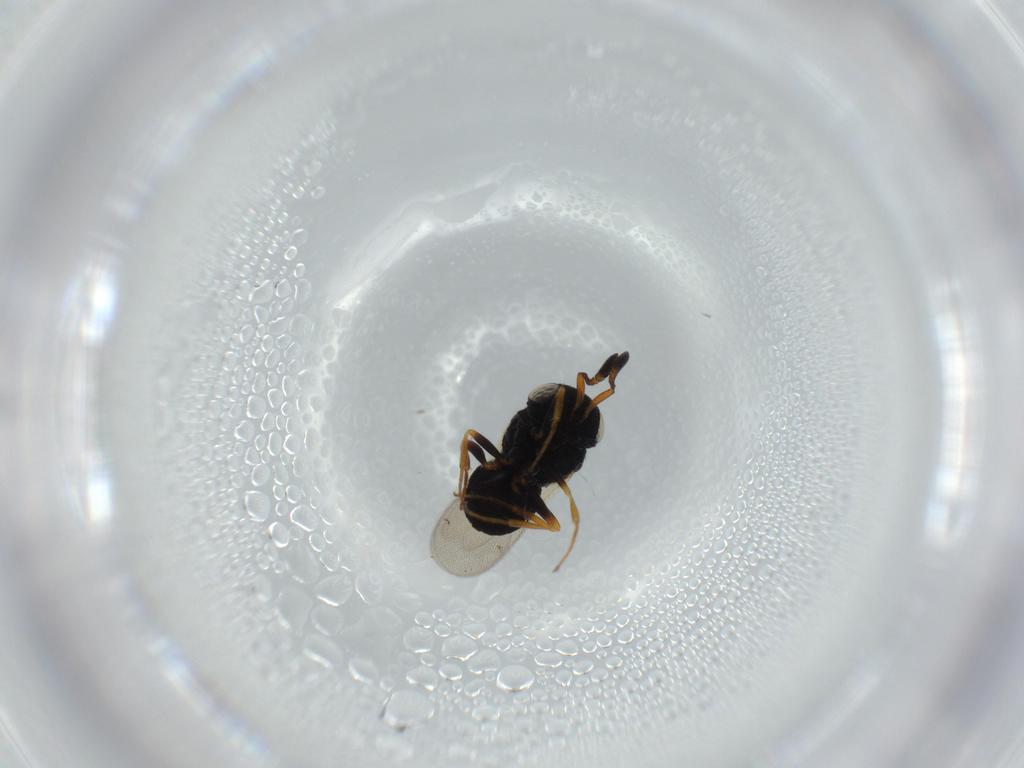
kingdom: Animalia
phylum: Arthropoda
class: Insecta
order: Hymenoptera
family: Scelionidae
